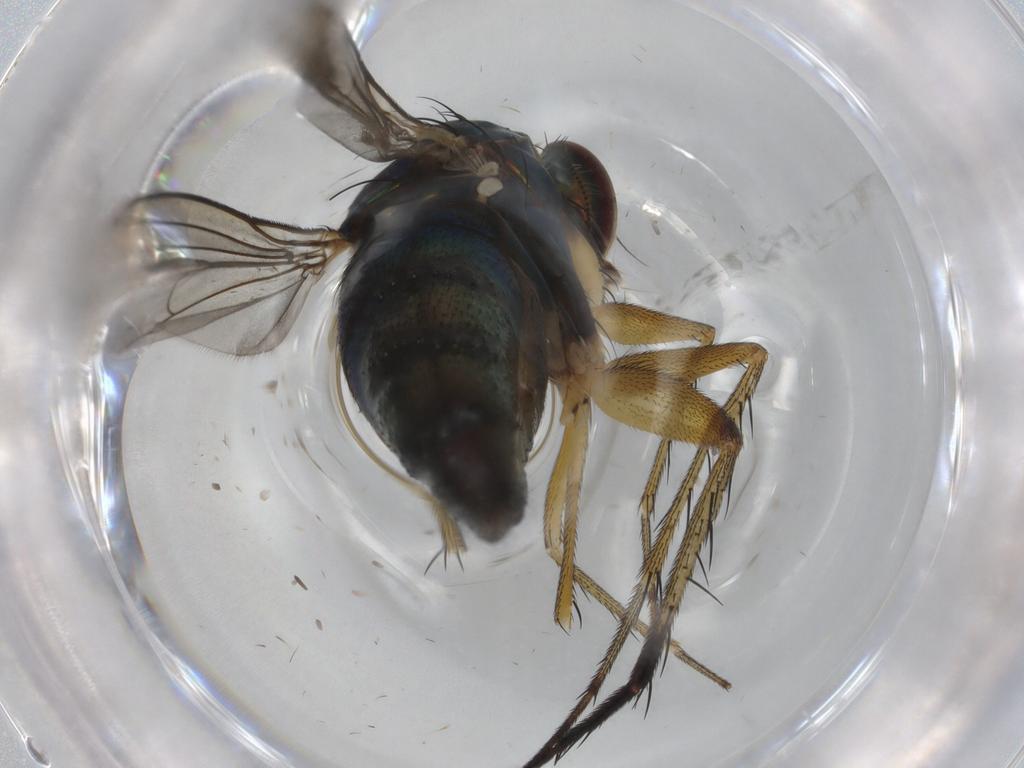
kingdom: Animalia
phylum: Arthropoda
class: Insecta
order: Diptera
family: Dolichopodidae
